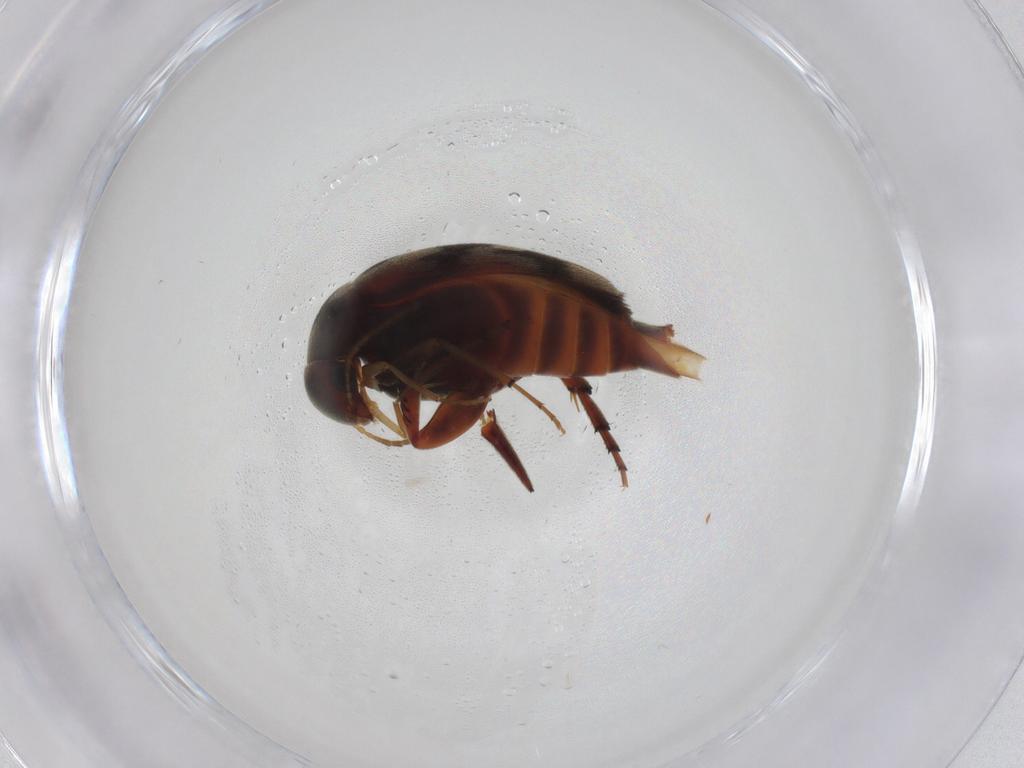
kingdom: Animalia
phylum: Arthropoda
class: Insecta
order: Coleoptera
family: Mordellidae
